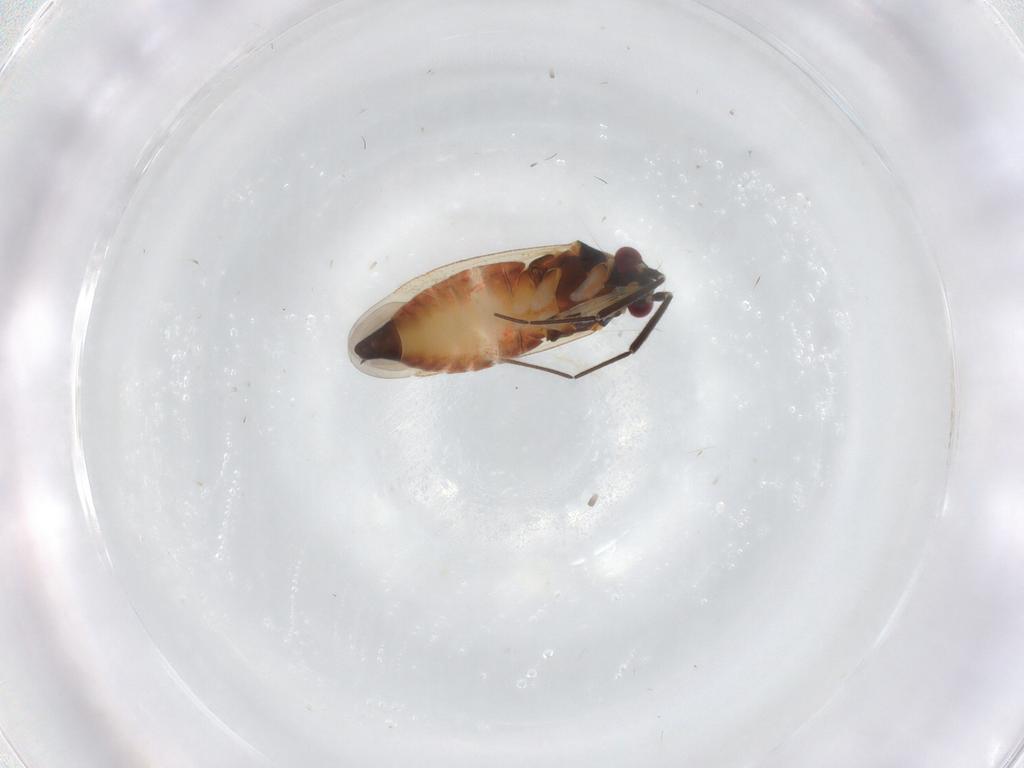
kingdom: Animalia
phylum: Arthropoda
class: Insecta
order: Hemiptera
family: Miridae
